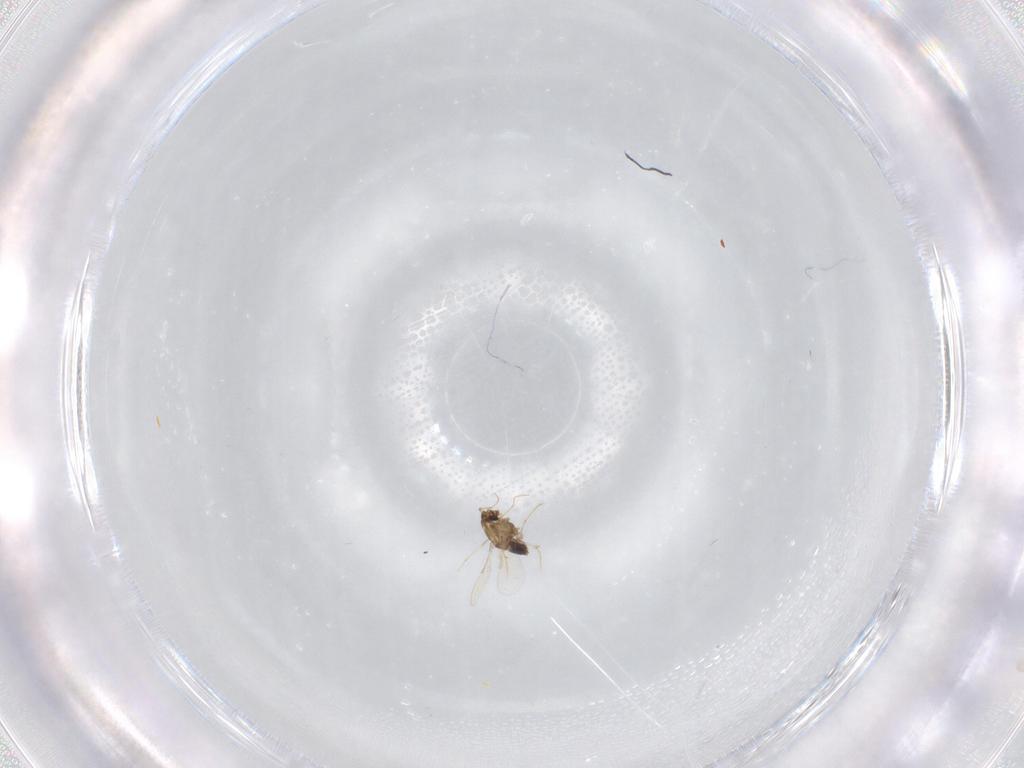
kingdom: Animalia
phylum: Arthropoda
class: Insecta
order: Diptera
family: Chironomidae
